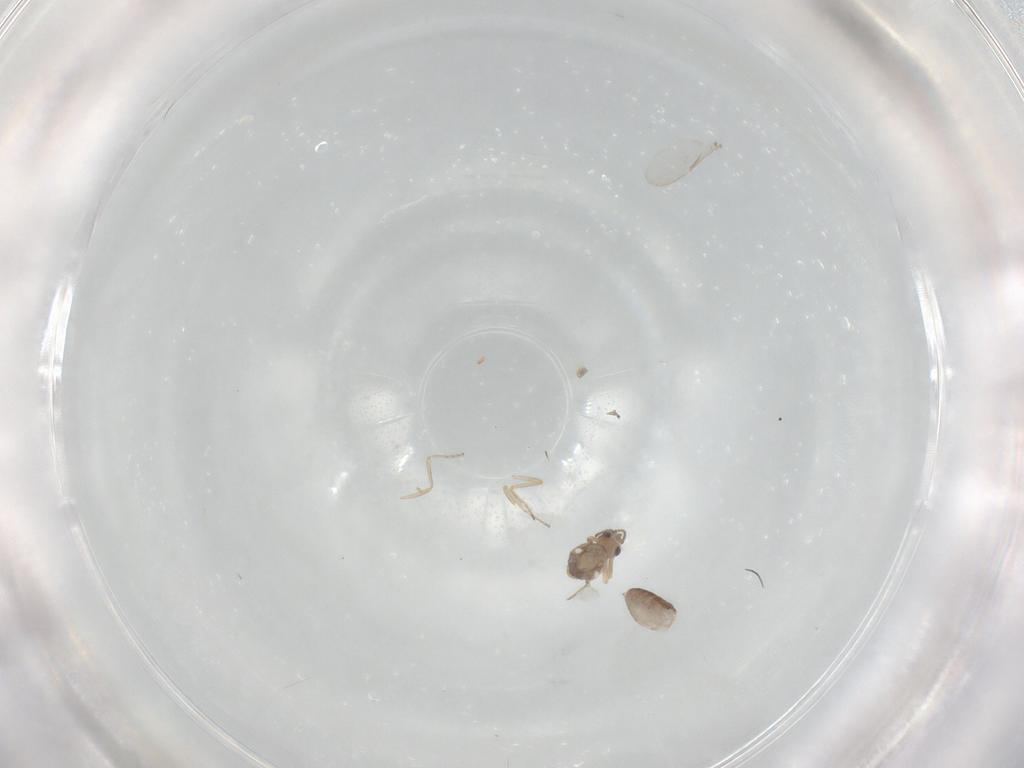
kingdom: Animalia
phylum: Arthropoda
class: Insecta
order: Diptera
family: Ceratopogonidae
